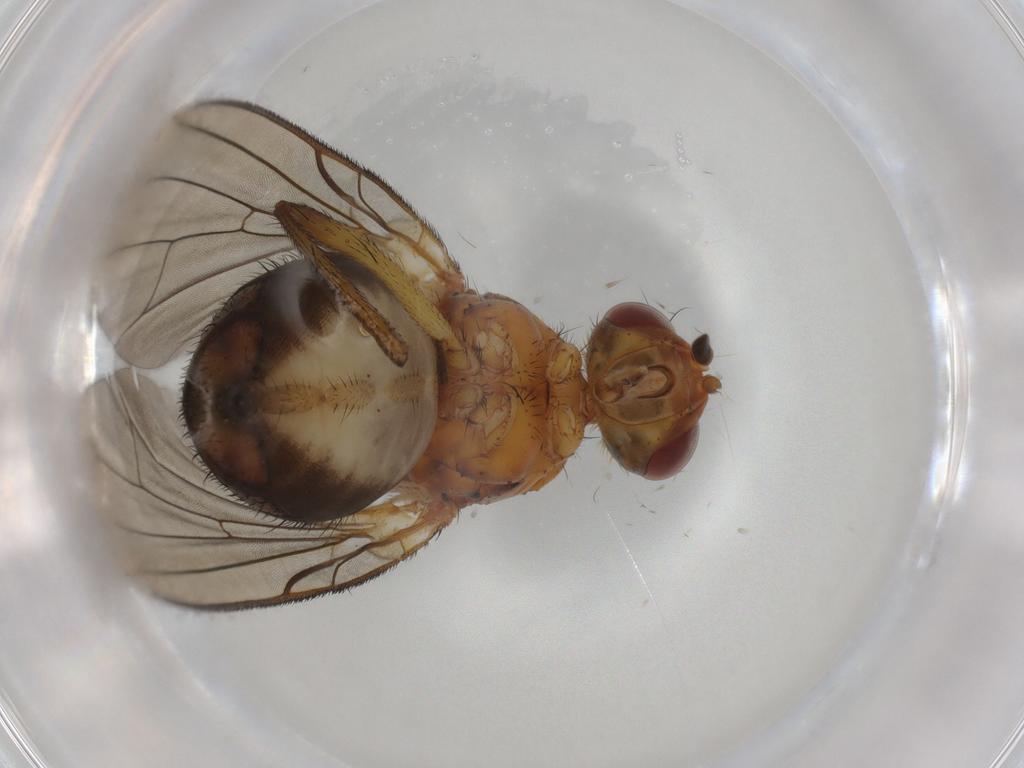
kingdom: Animalia
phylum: Arthropoda
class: Insecta
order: Diptera
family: Anthomyiidae
